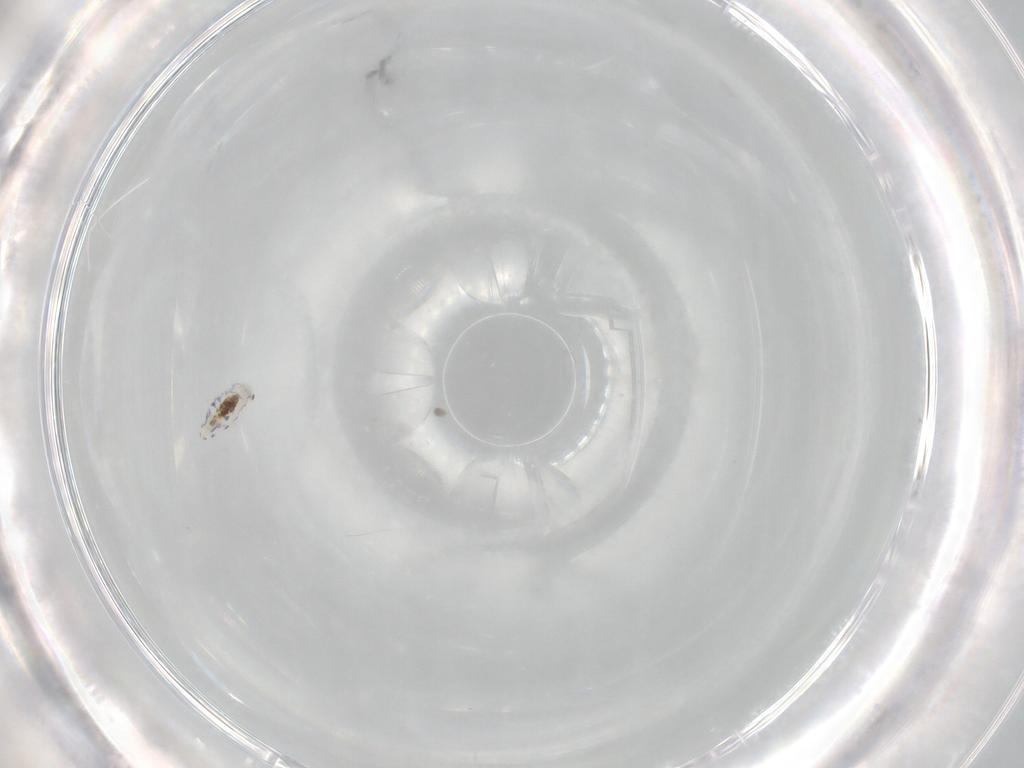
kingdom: Animalia
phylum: Arthropoda
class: Collembola
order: Entomobryomorpha
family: Entomobryidae
